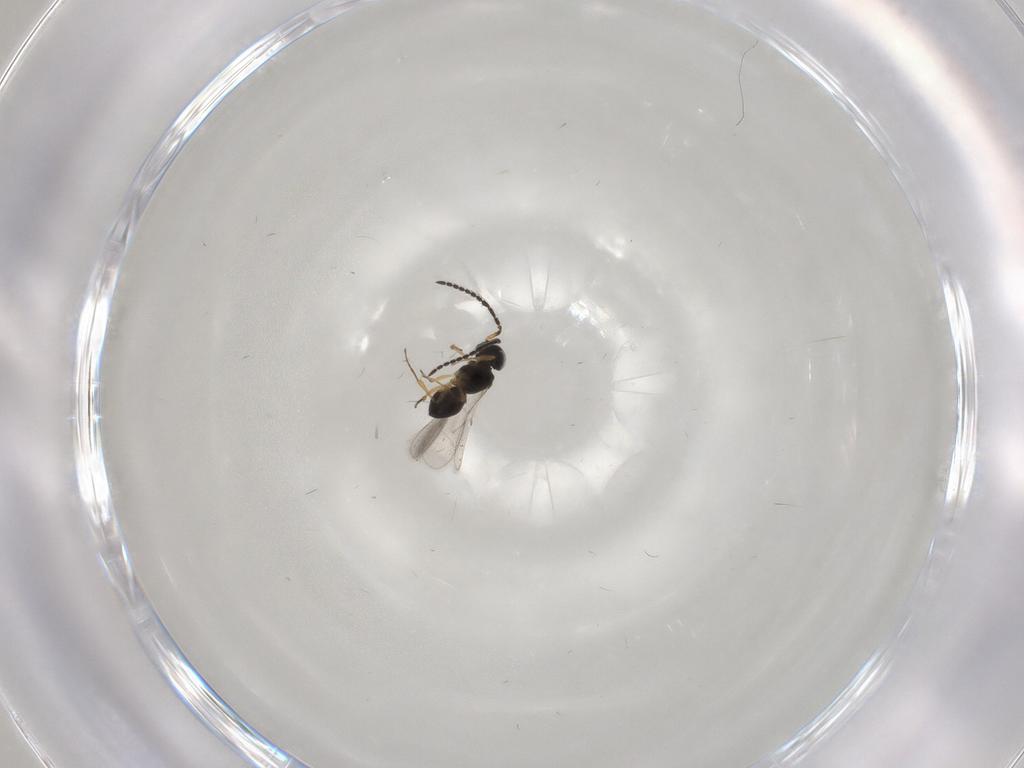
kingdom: Animalia
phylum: Arthropoda
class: Insecta
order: Hymenoptera
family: Scelionidae
